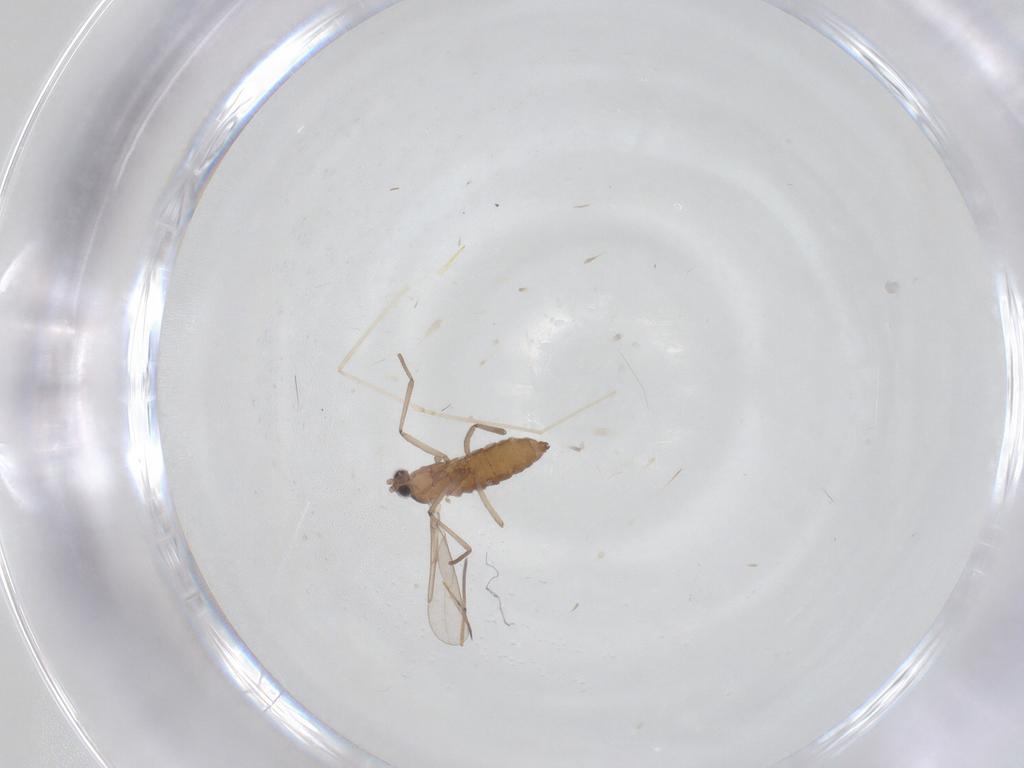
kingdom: Animalia
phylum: Arthropoda
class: Insecta
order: Diptera
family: Cecidomyiidae
